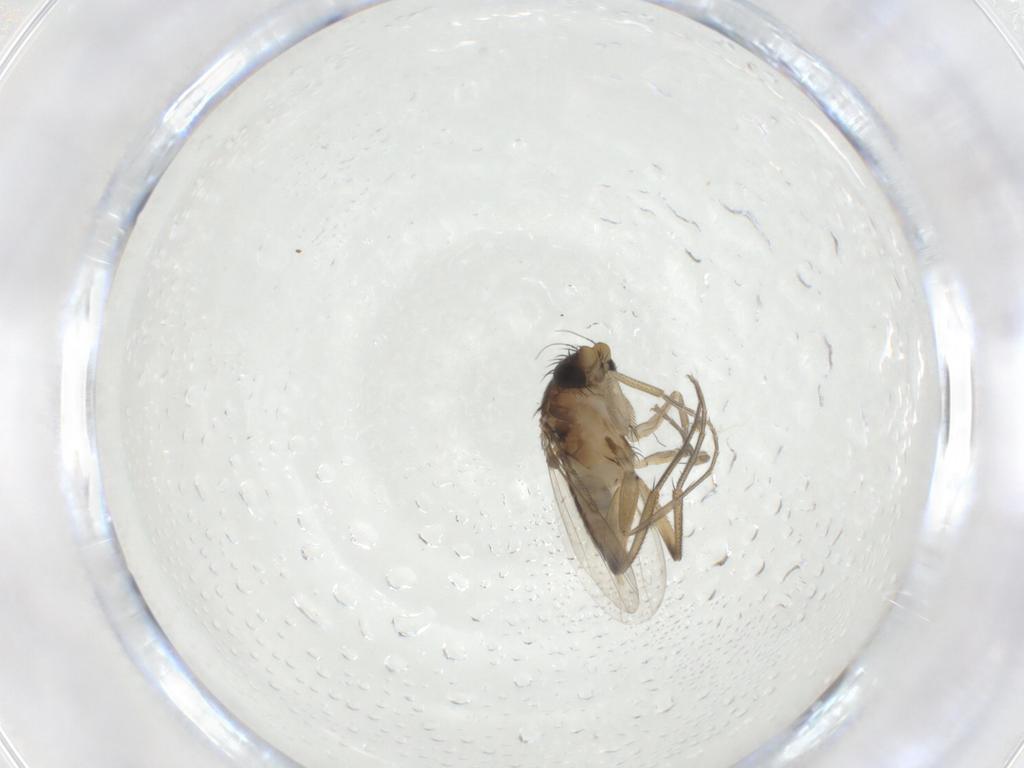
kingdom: Animalia
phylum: Arthropoda
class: Insecta
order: Diptera
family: Phoridae
